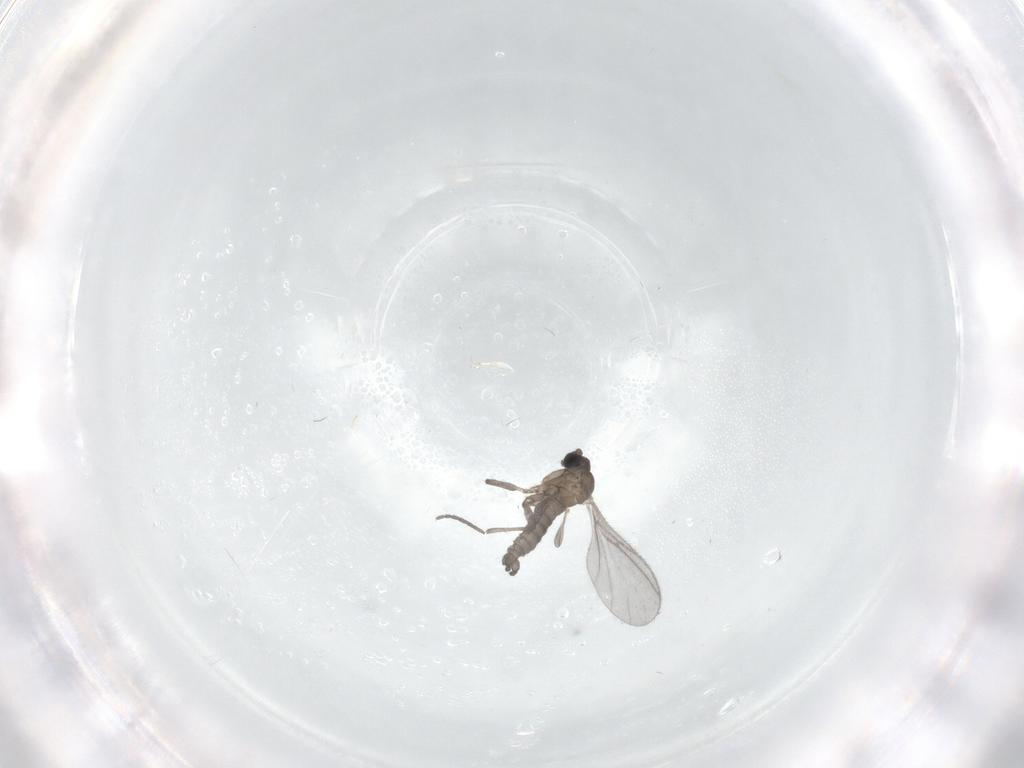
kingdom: Animalia
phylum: Arthropoda
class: Insecta
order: Diptera
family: Sciaridae
